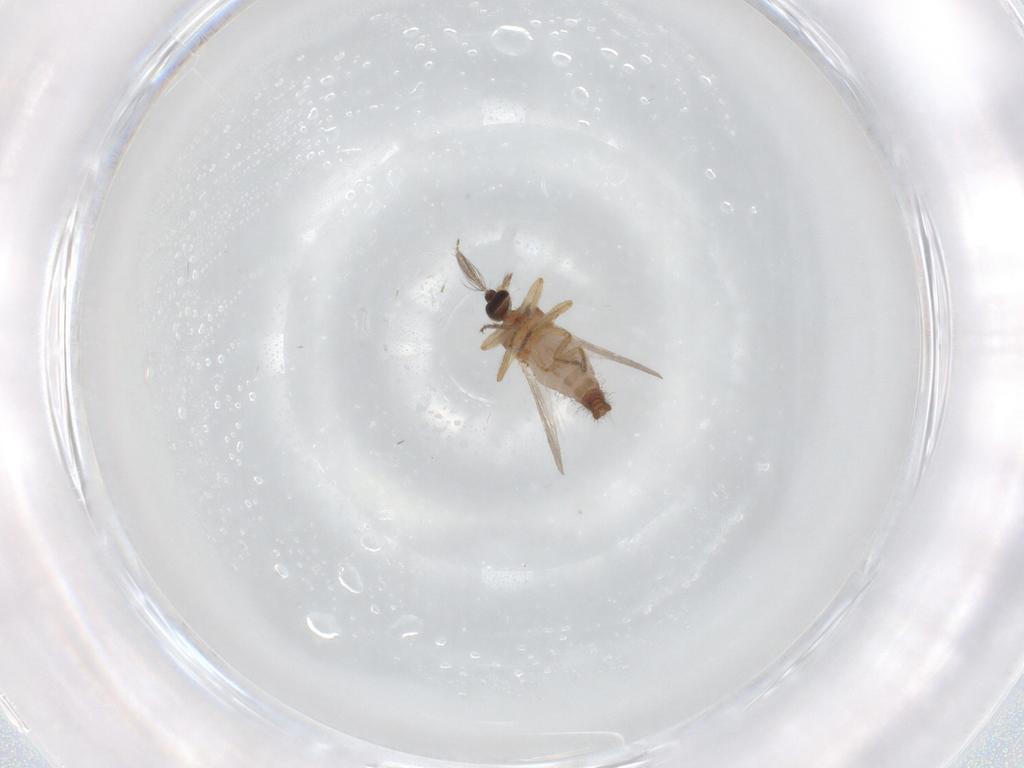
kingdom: Animalia
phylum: Arthropoda
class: Insecta
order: Diptera
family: Ceratopogonidae
